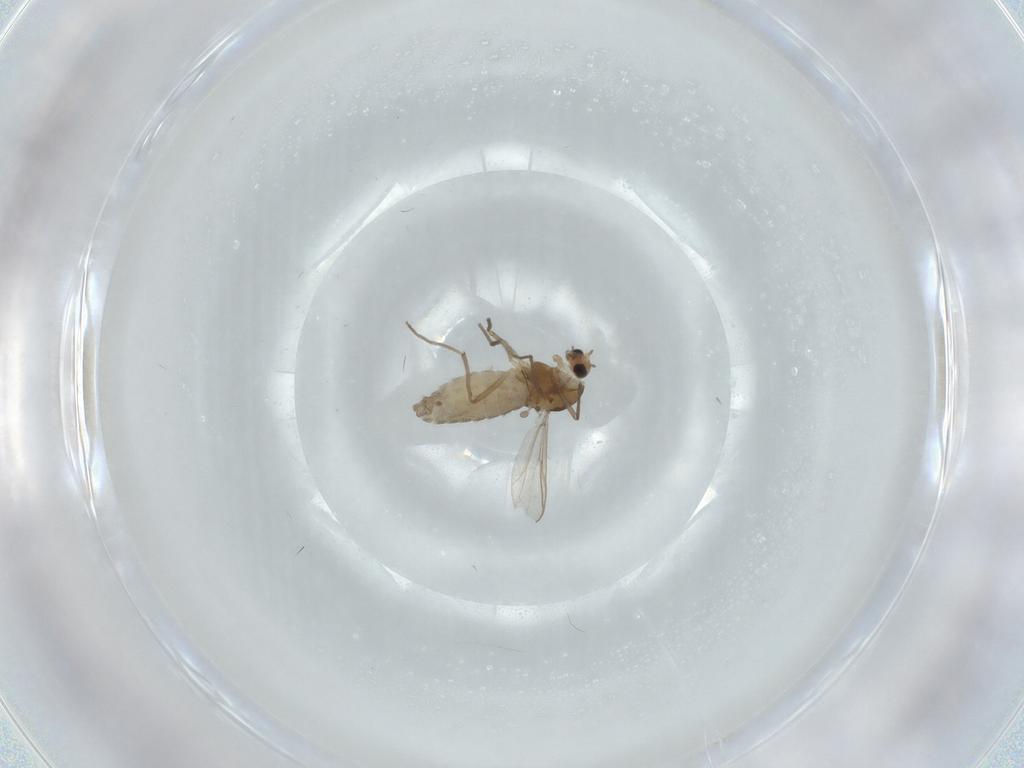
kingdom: Animalia
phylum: Arthropoda
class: Insecta
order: Diptera
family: Chironomidae
